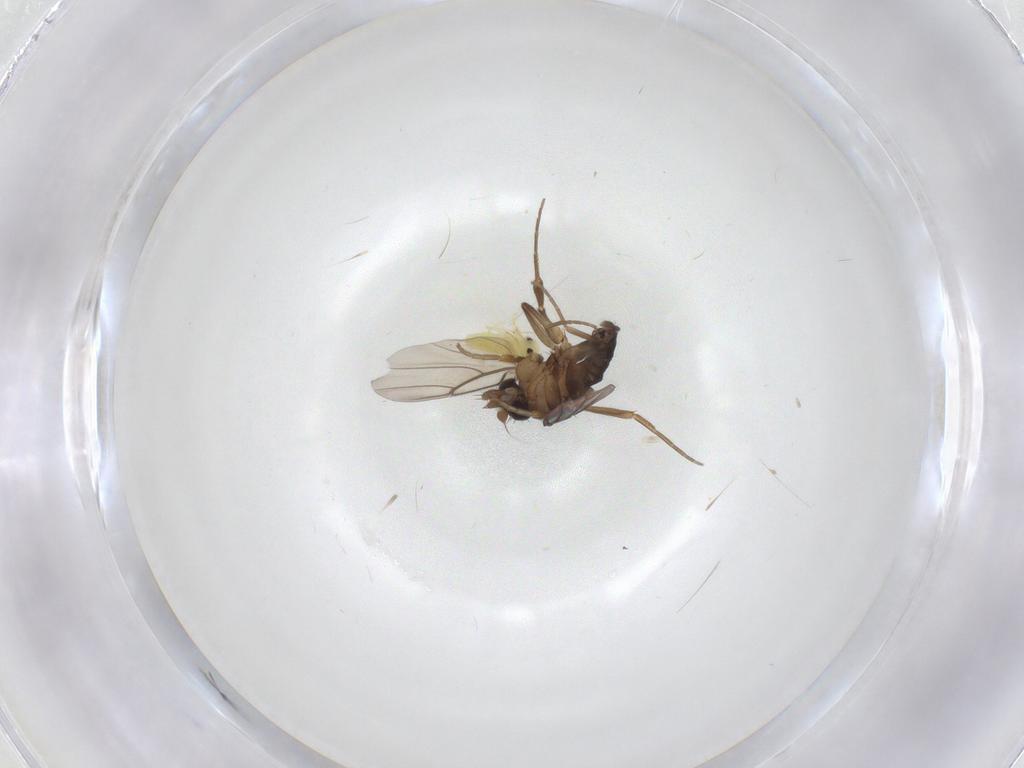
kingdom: Animalia
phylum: Arthropoda
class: Insecta
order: Diptera
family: Phoridae
